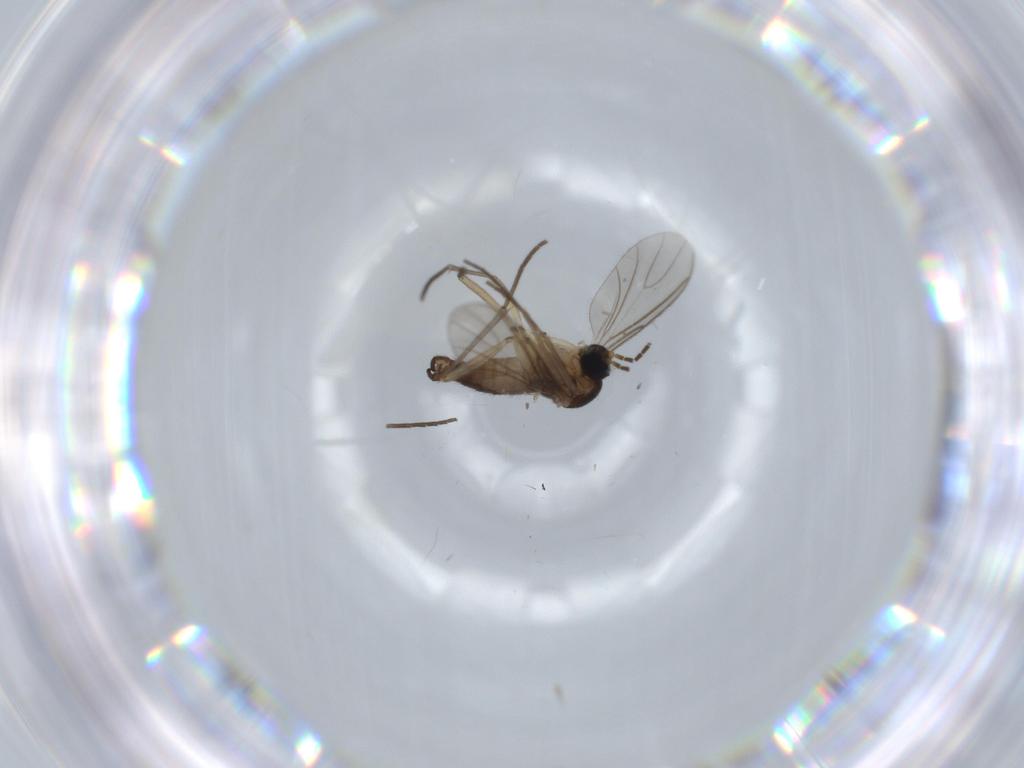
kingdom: Animalia
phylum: Arthropoda
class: Insecta
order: Diptera
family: Sciaridae
